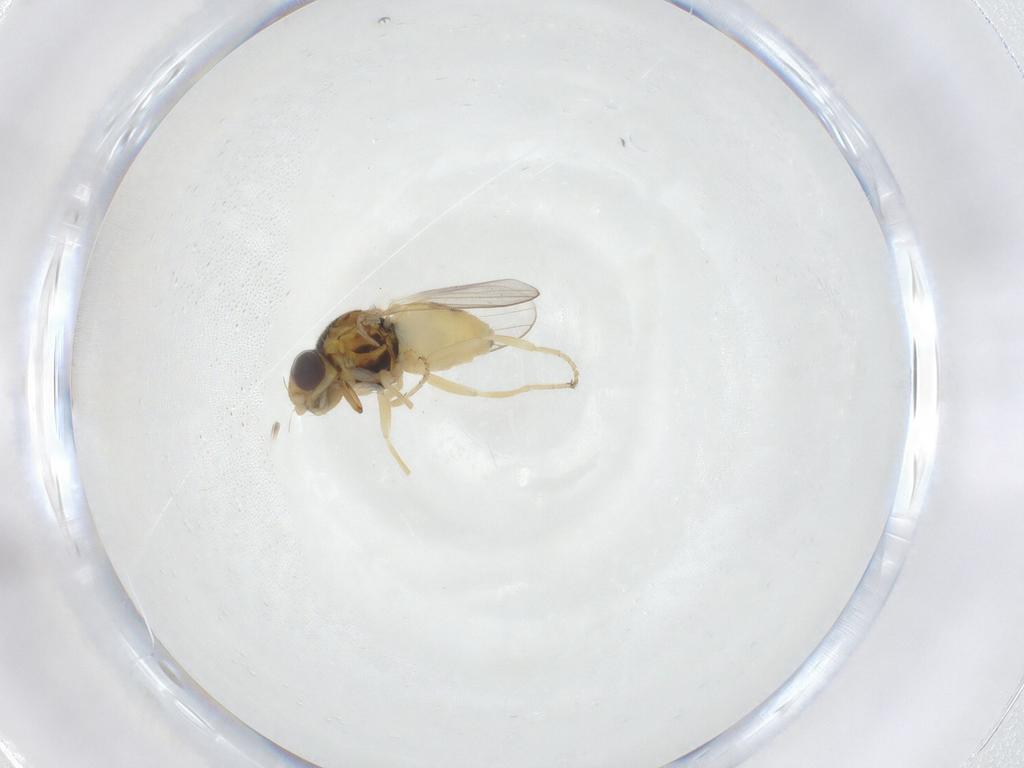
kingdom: Animalia
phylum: Arthropoda
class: Insecta
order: Diptera
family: Chloropidae
